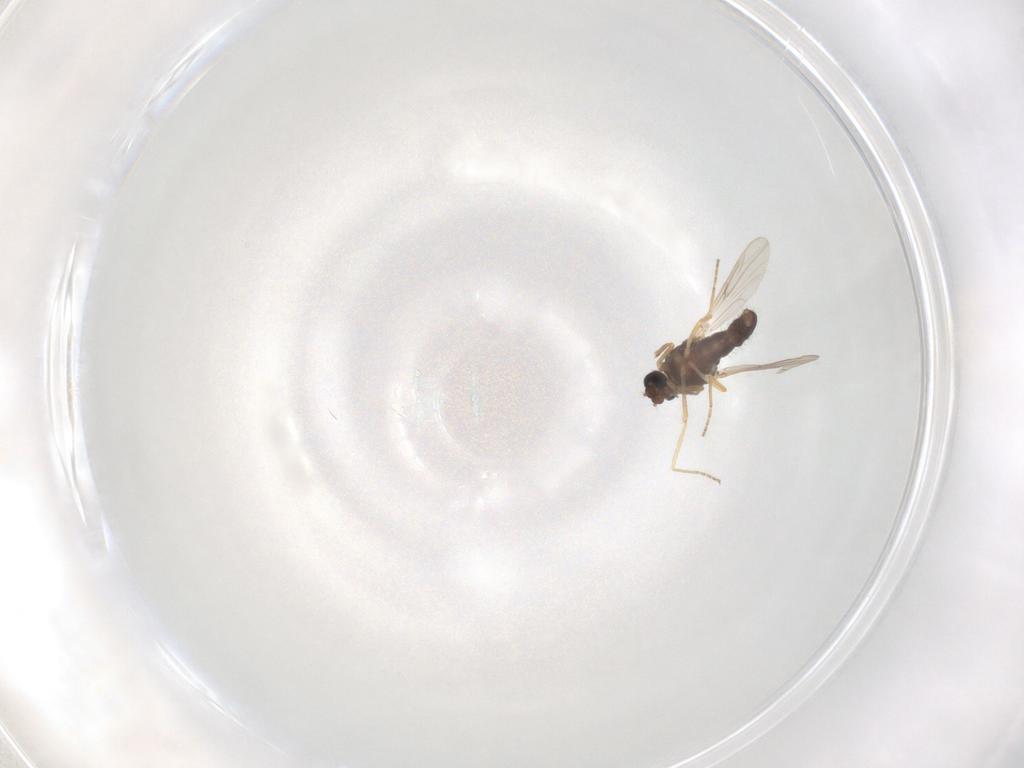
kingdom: Animalia
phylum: Arthropoda
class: Insecta
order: Diptera
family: Ceratopogonidae
